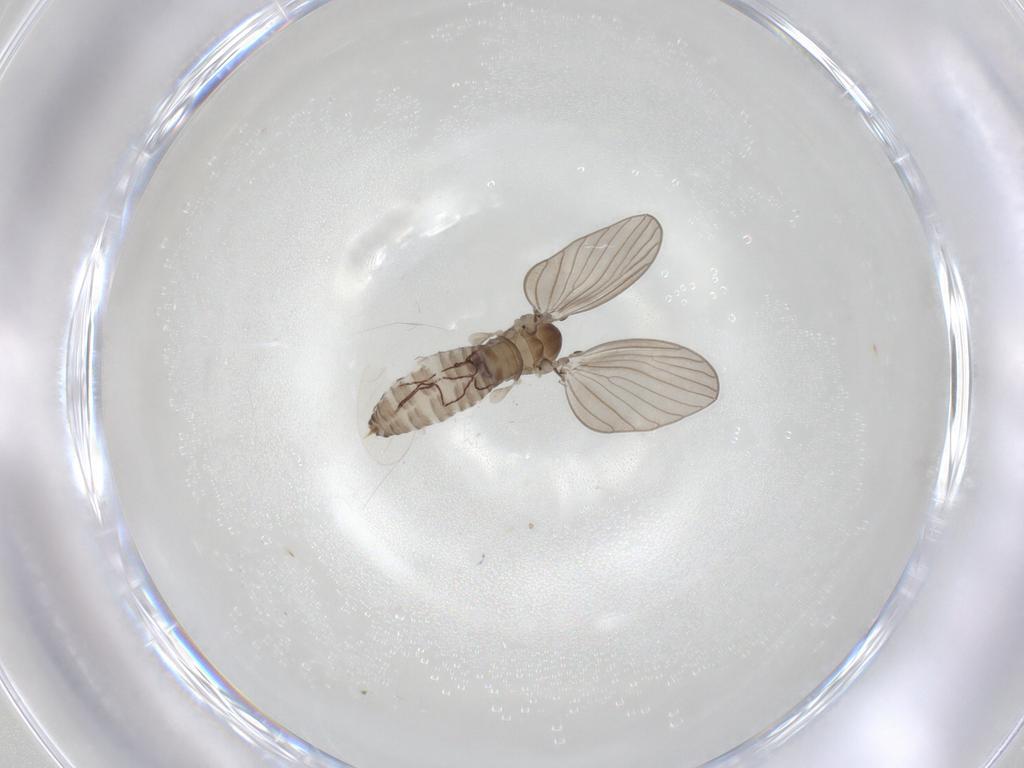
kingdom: Animalia
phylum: Arthropoda
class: Insecta
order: Diptera
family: Psychodidae
